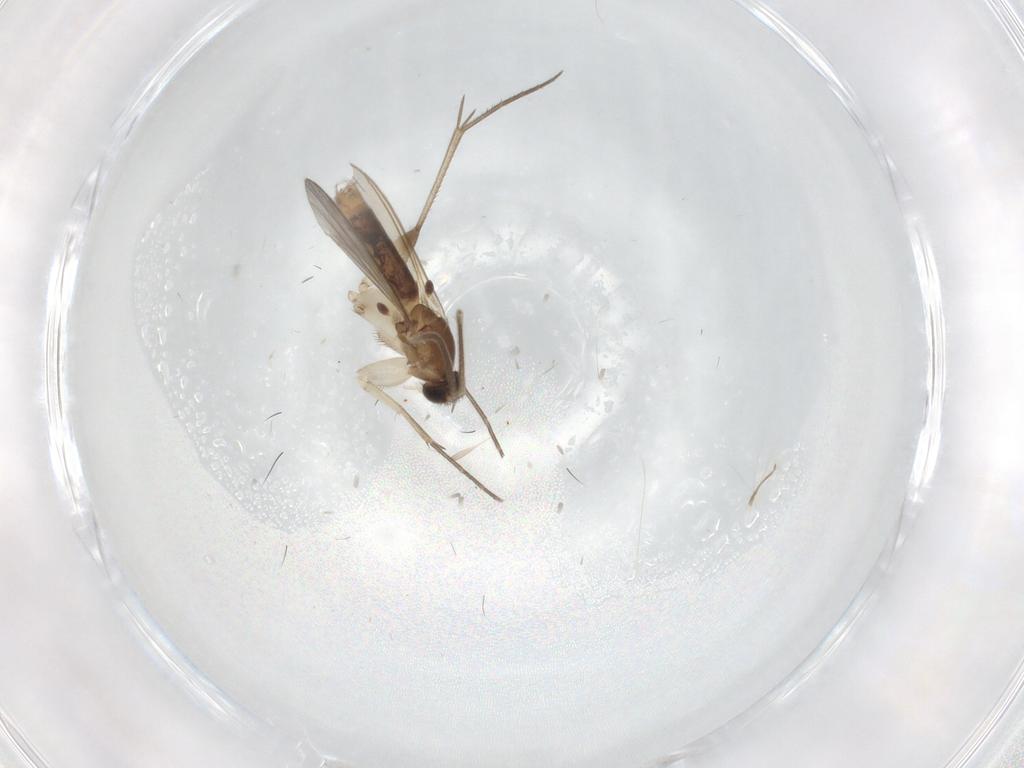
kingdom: Animalia
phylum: Arthropoda
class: Insecta
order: Diptera
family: Mycetophilidae
